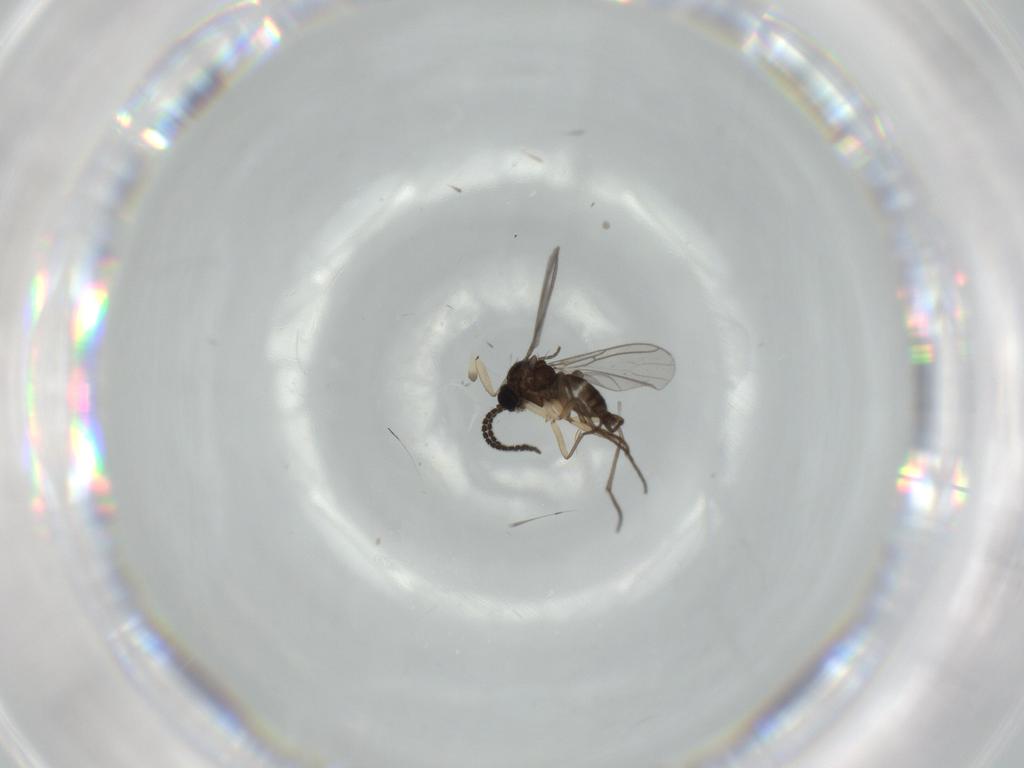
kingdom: Animalia
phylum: Arthropoda
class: Insecta
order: Diptera
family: Sciaridae
